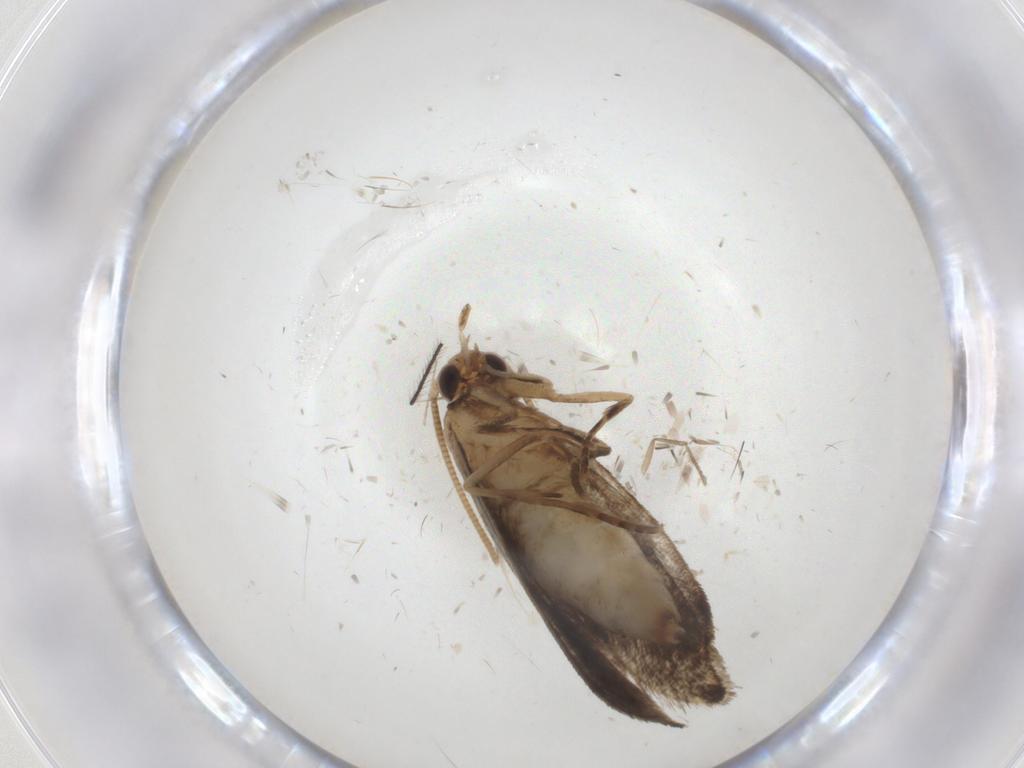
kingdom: Animalia
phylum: Arthropoda
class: Insecta
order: Lepidoptera
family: Tineidae
